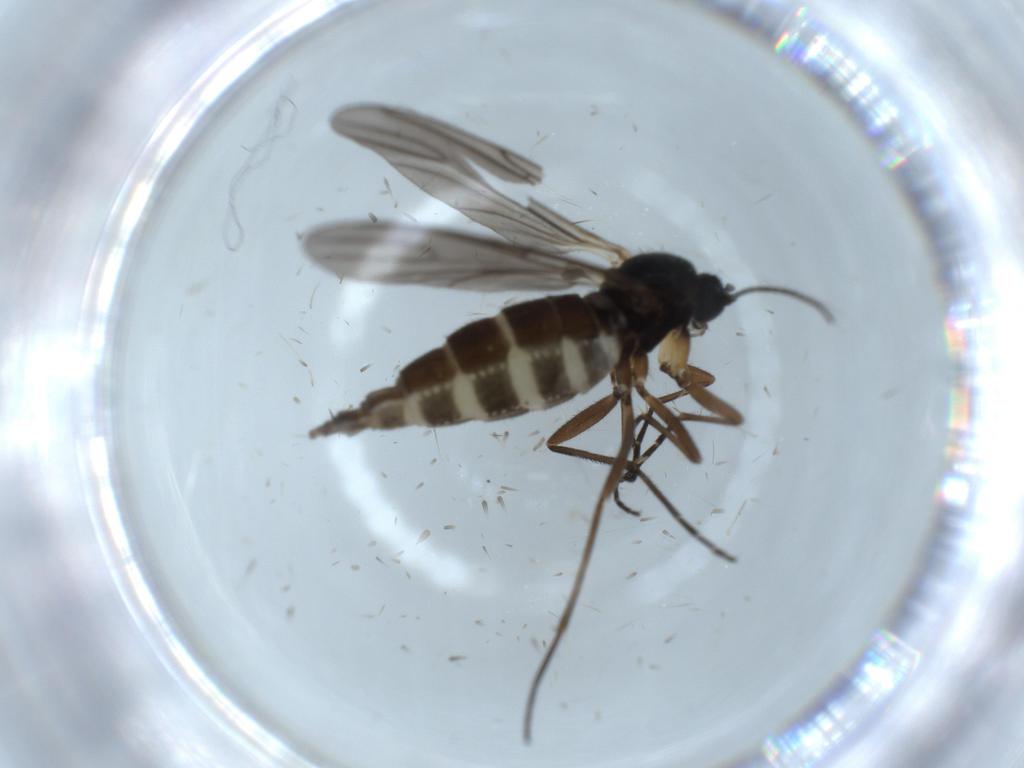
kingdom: Animalia
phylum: Arthropoda
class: Insecta
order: Diptera
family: Sciaridae
